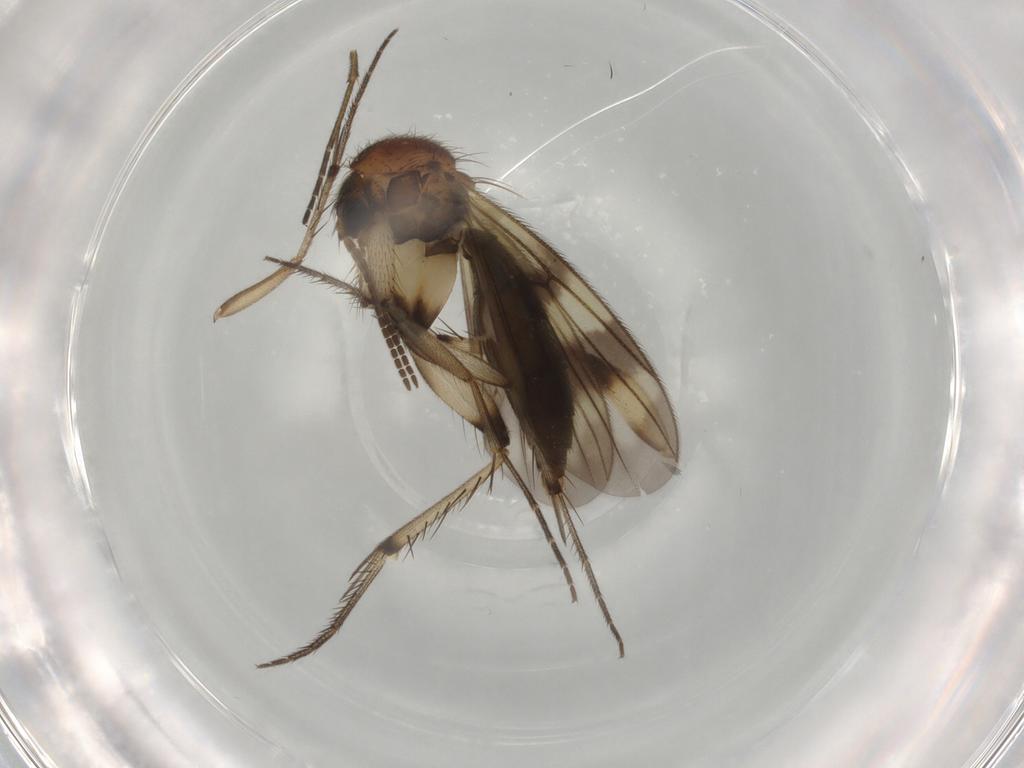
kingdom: Animalia
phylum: Arthropoda
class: Insecta
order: Diptera
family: Mycetophilidae
